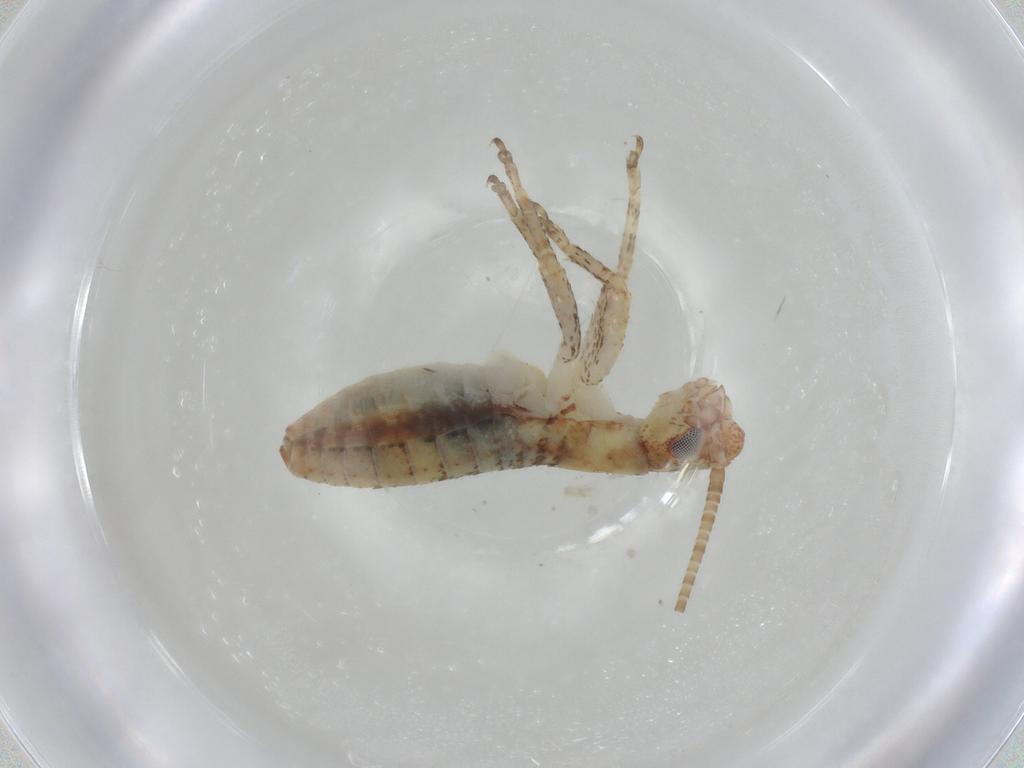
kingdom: Animalia
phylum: Arthropoda
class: Insecta
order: Orthoptera
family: Mogoplistidae
